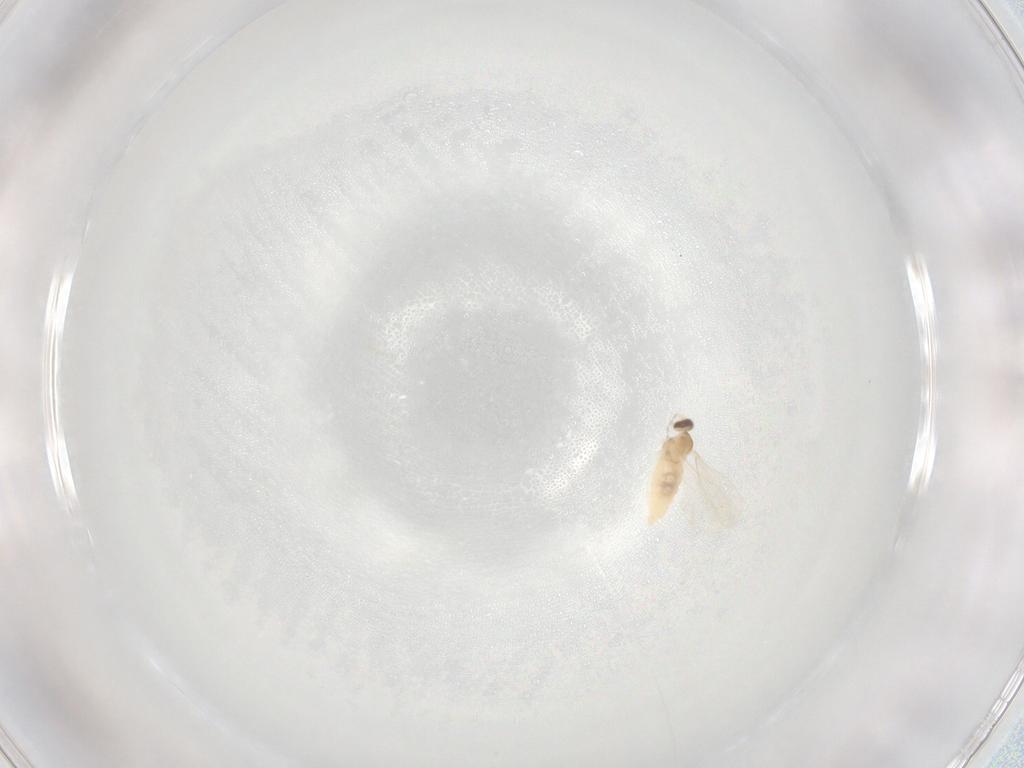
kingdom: Animalia
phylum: Arthropoda
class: Insecta
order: Diptera
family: Cecidomyiidae
